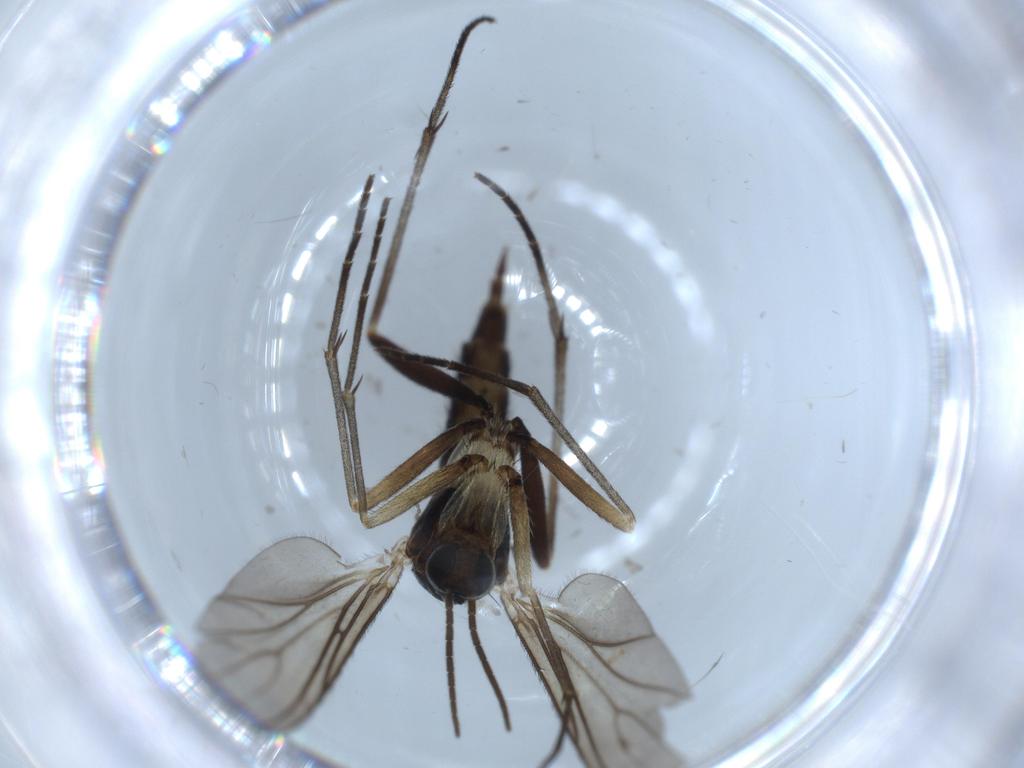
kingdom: Animalia
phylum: Arthropoda
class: Insecta
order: Diptera
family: Sciaridae
